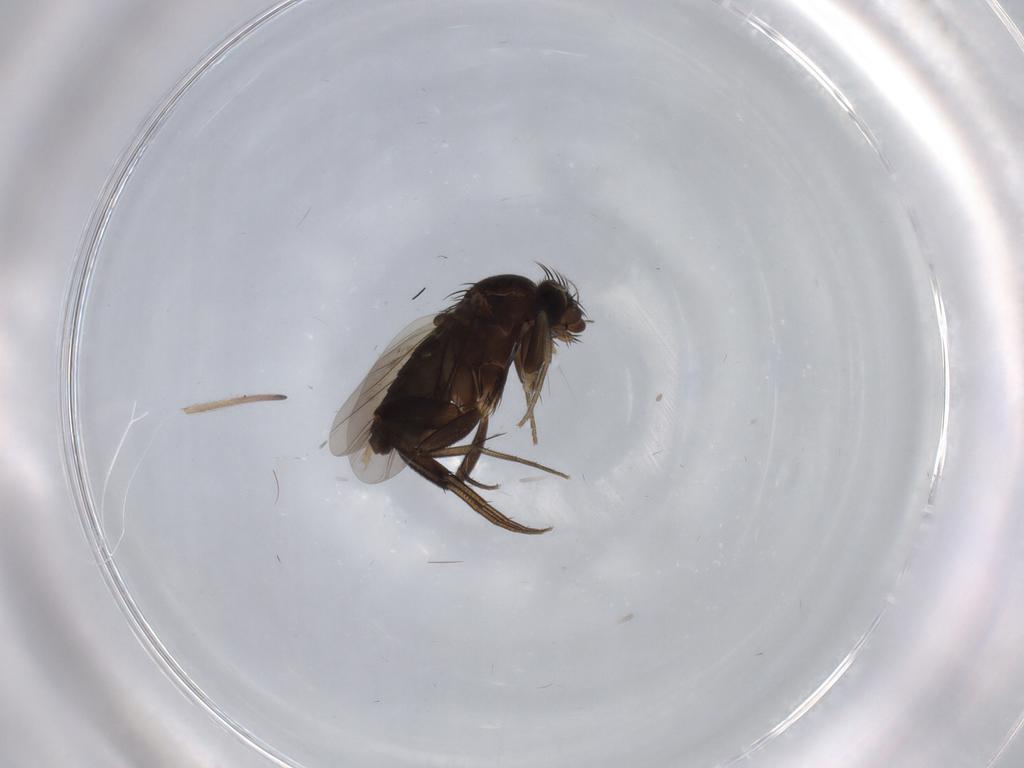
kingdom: Animalia
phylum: Arthropoda
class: Insecta
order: Diptera
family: Phoridae
